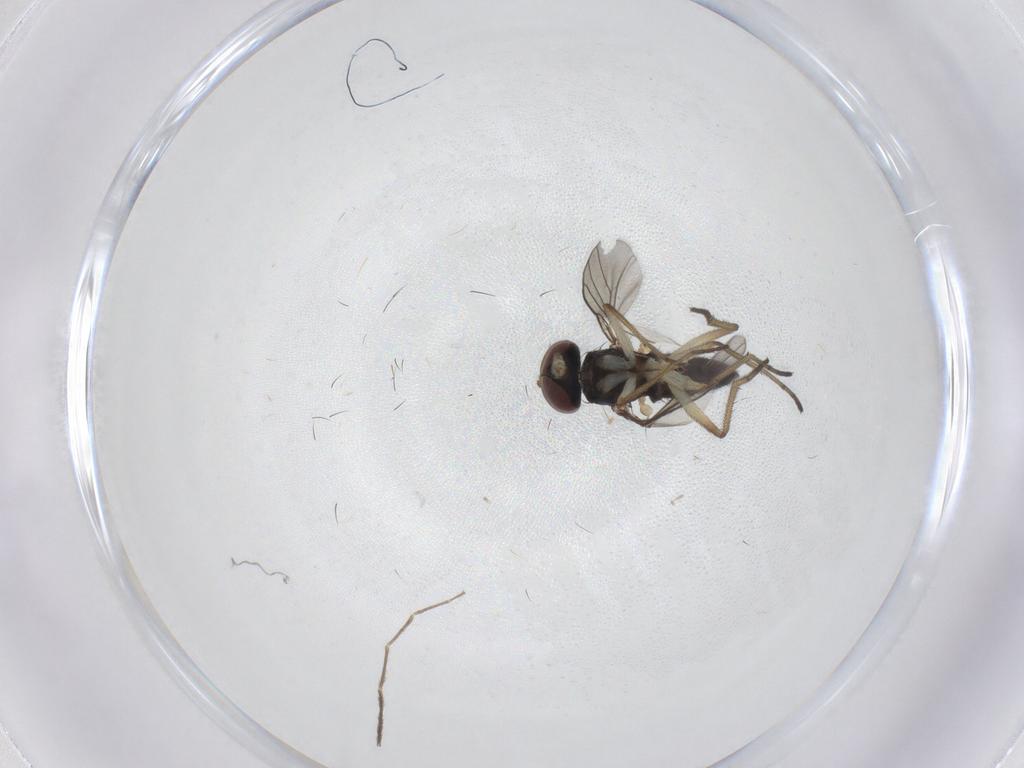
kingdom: Animalia
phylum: Arthropoda
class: Insecta
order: Diptera
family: Dolichopodidae
